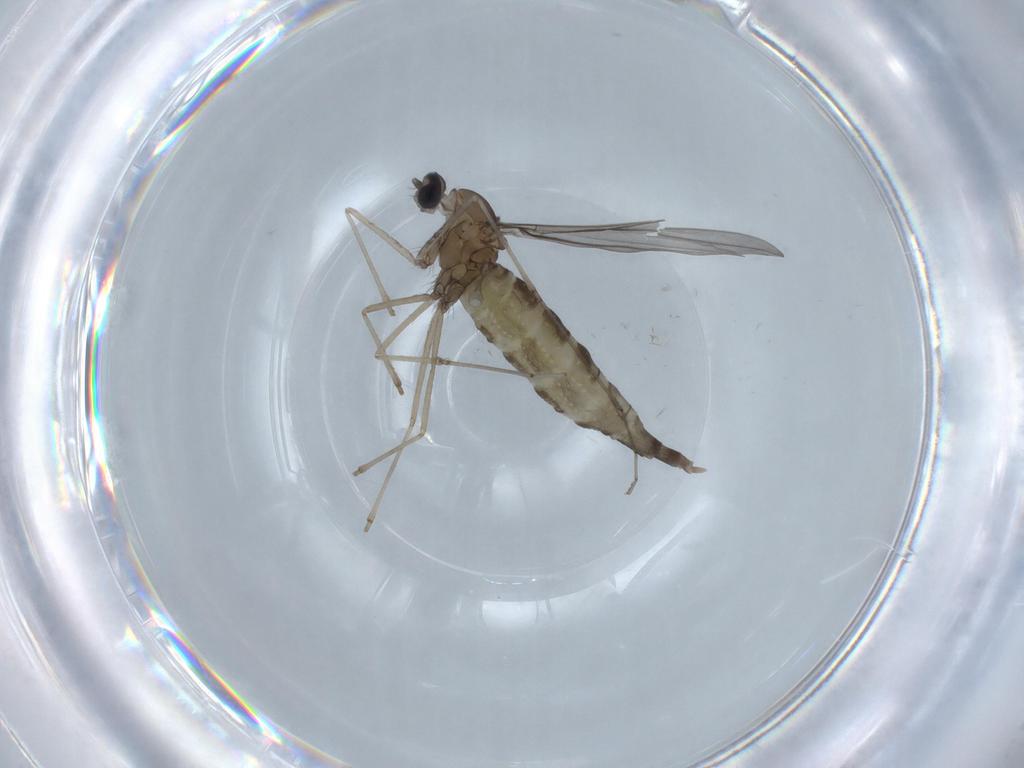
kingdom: Animalia
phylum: Arthropoda
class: Insecta
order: Diptera
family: Chironomidae
